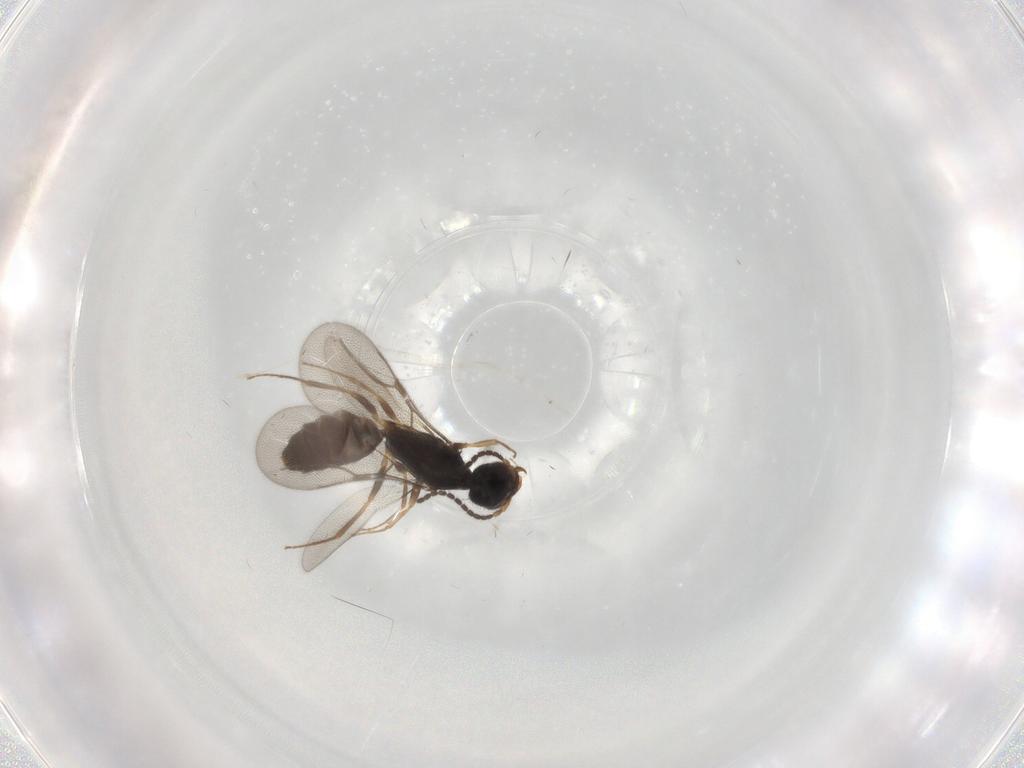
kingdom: Animalia
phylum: Arthropoda
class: Insecta
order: Hymenoptera
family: Bethylidae
